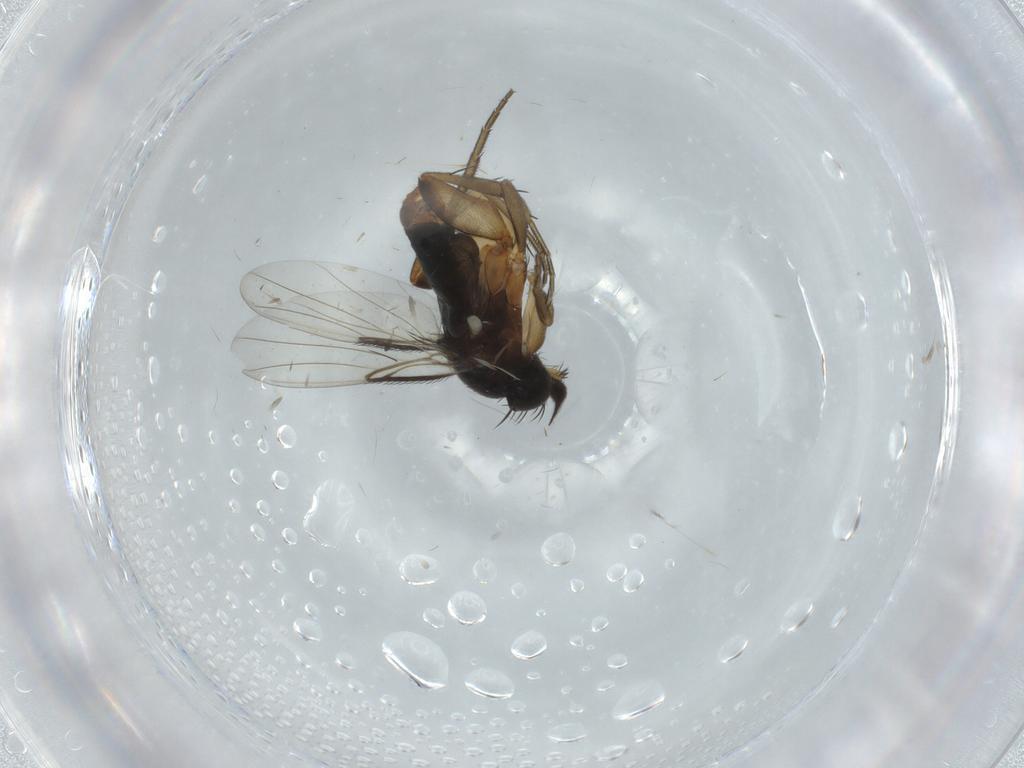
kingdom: Animalia
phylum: Arthropoda
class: Insecta
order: Diptera
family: Phoridae
